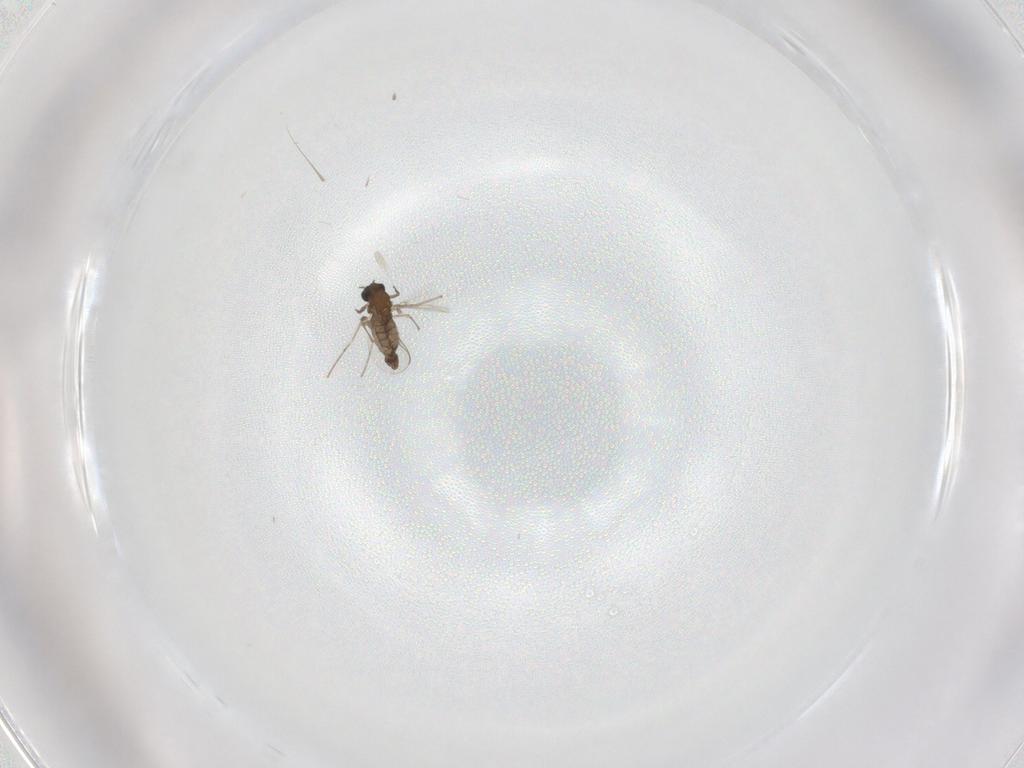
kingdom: Animalia
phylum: Arthropoda
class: Insecta
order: Diptera
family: Chironomidae
